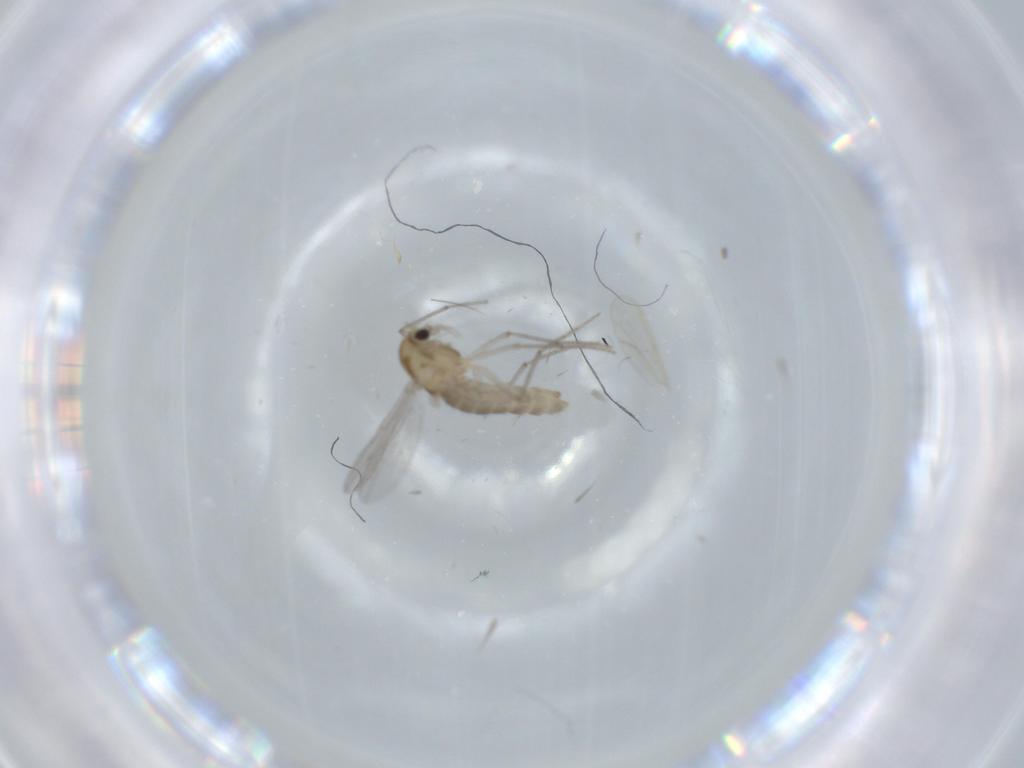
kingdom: Animalia
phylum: Arthropoda
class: Insecta
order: Diptera
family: Chironomidae
